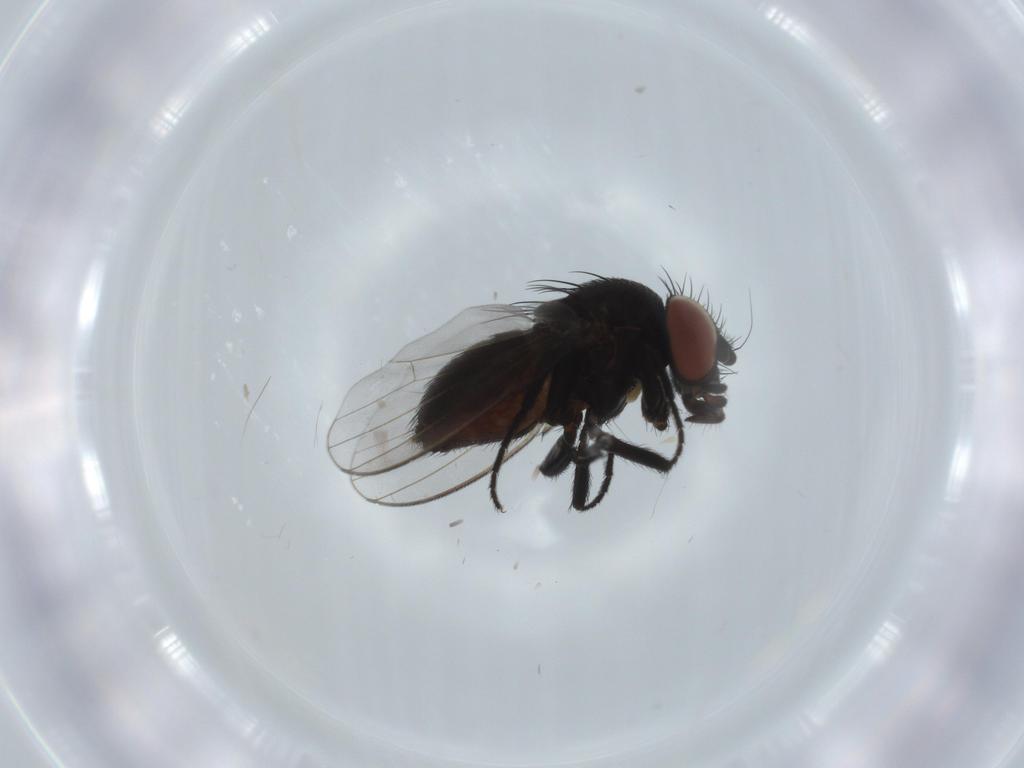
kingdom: Animalia
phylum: Arthropoda
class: Insecta
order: Diptera
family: Milichiidae
